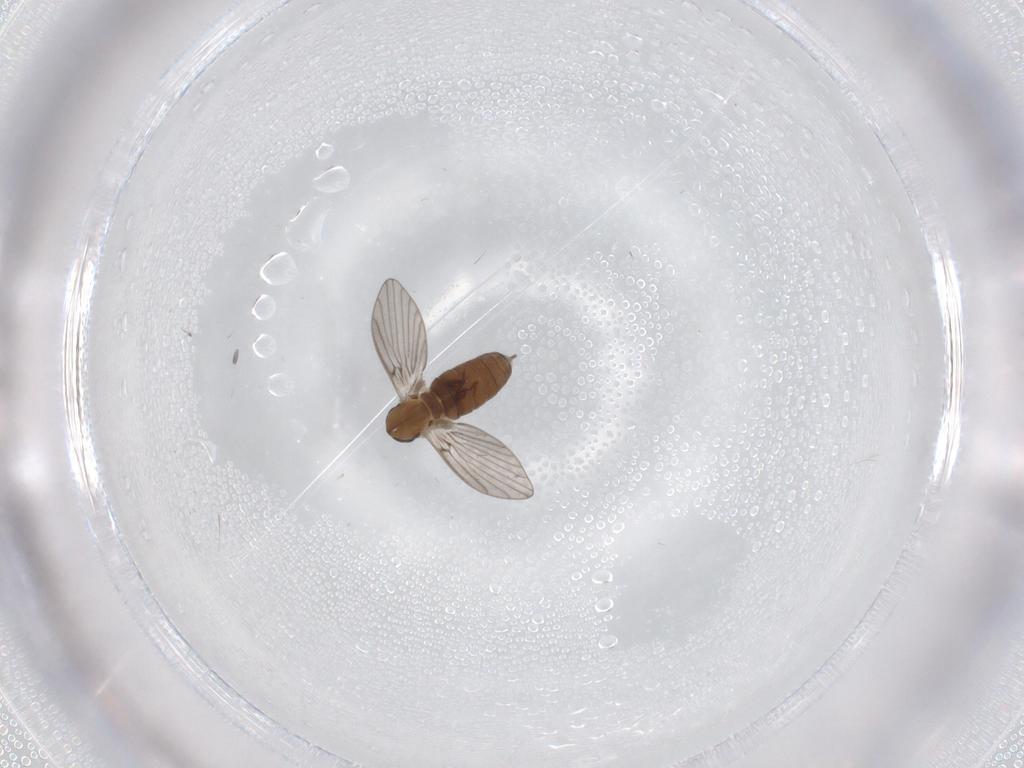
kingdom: Animalia
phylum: Arthropoda
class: Insecta
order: Diptera
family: Psychodidae
